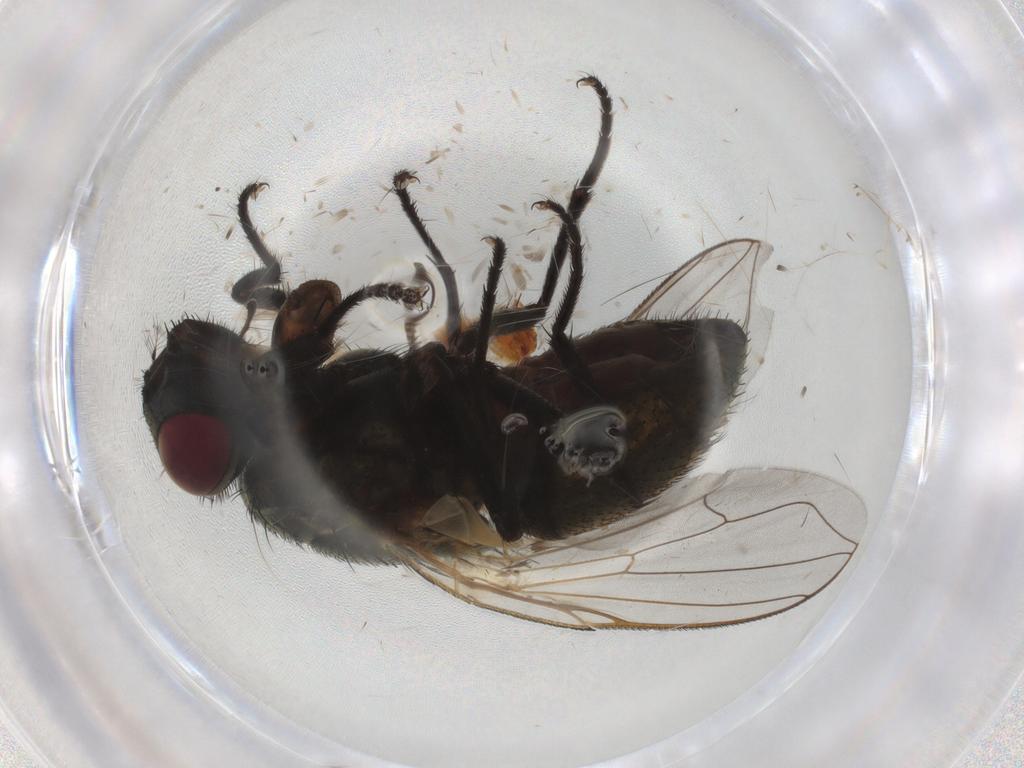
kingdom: Animalia
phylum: Arthropoda
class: Insecta
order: Diptera
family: Muscidae
